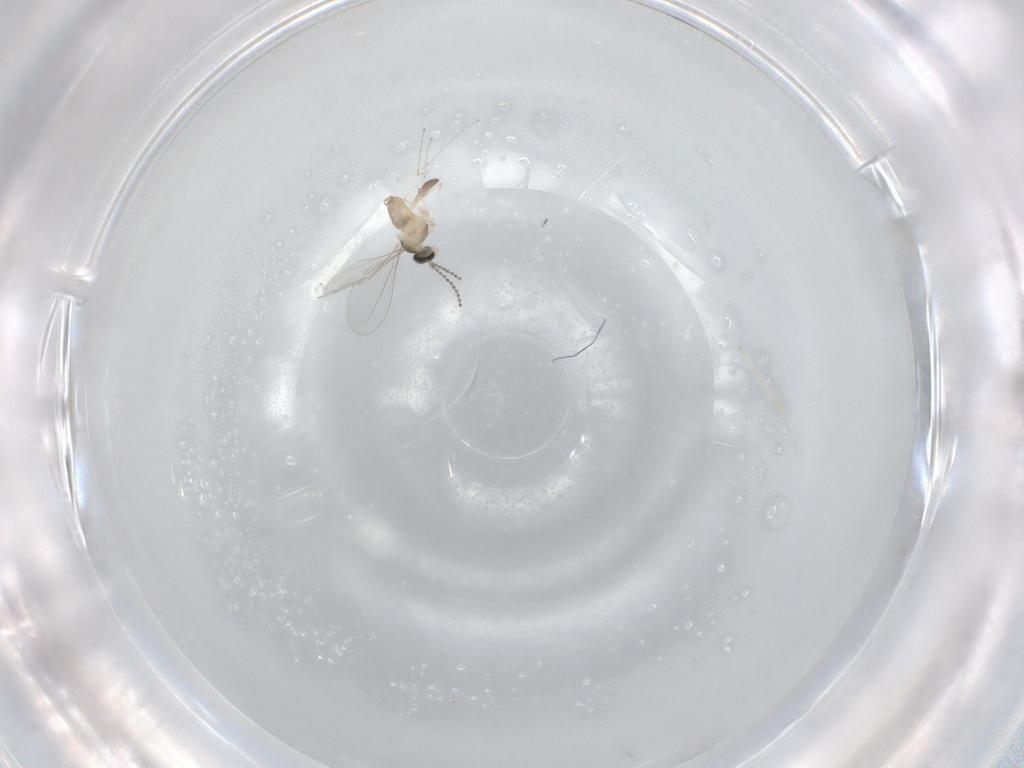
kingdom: Animalia
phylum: Arthropoda
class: Insecta
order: Diptera
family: Cecidomyiidae
